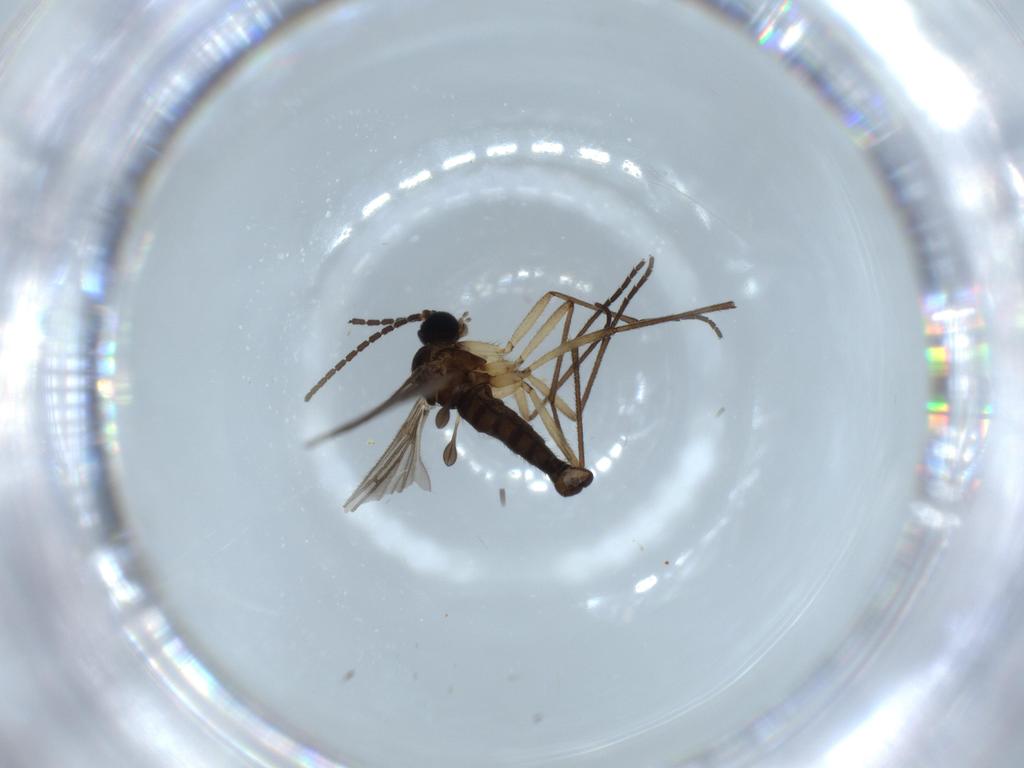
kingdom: Animalia
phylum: Arthropoda
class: Insecta
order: Diptera
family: Sciaridae
